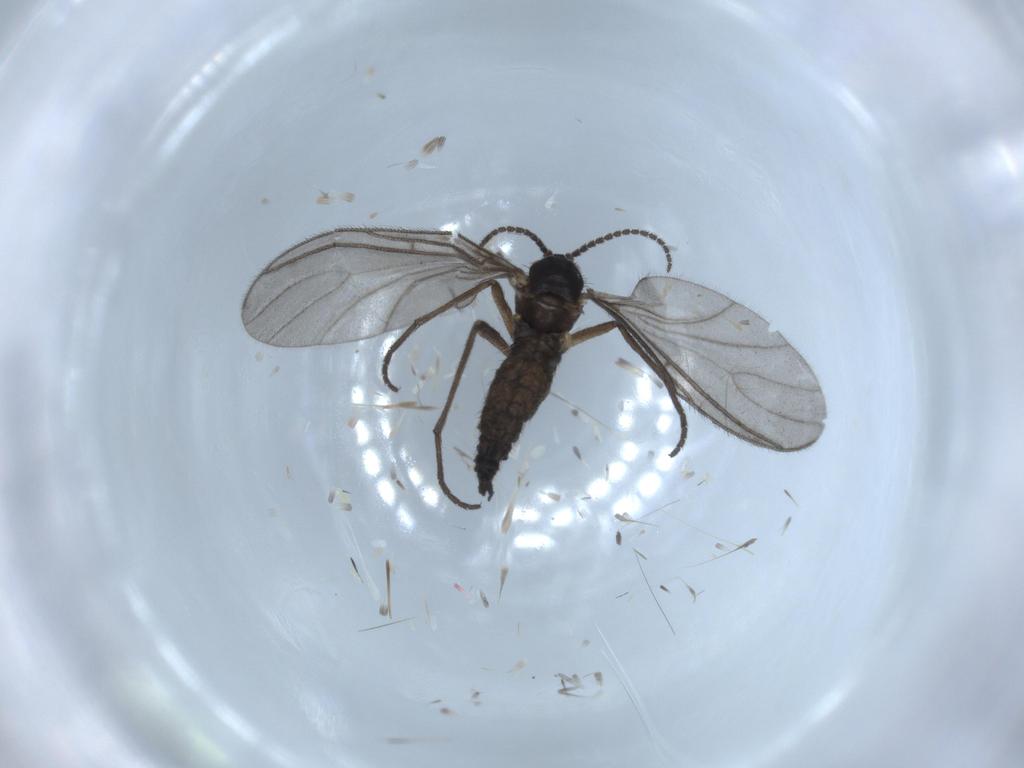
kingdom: Animalia
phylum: Arthropoda
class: Insecta
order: Diptera
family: Sciaridae
